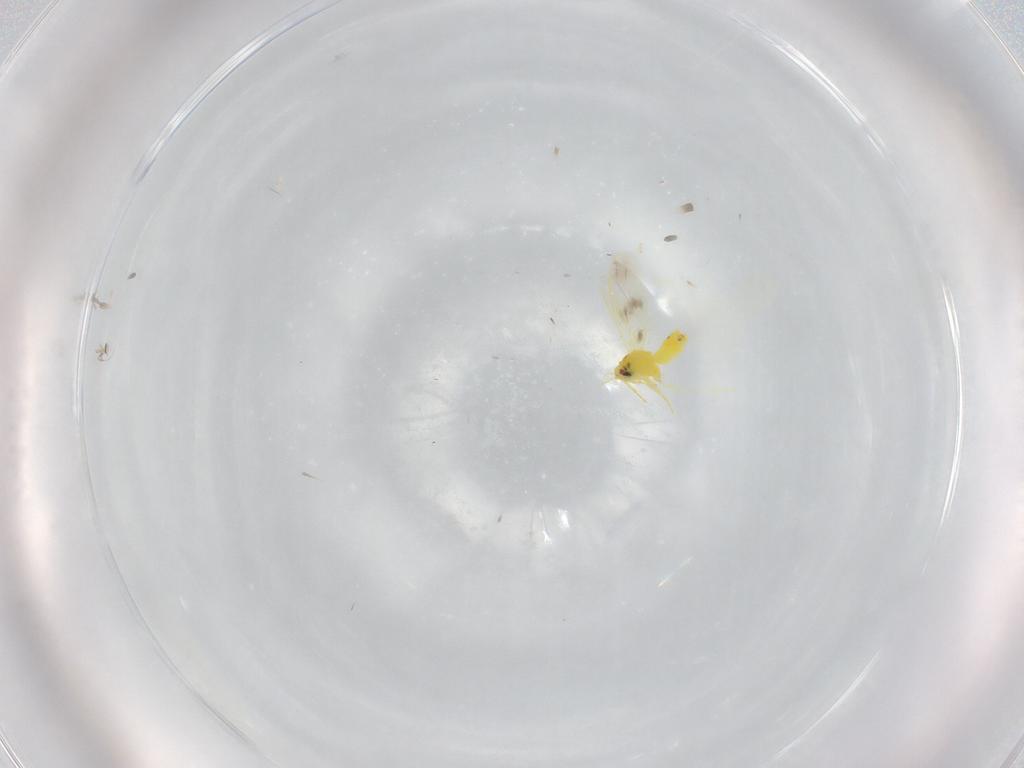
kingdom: Animalia
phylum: Arthropoda
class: Insecta
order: Hemiptera
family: Aleyrodidae
